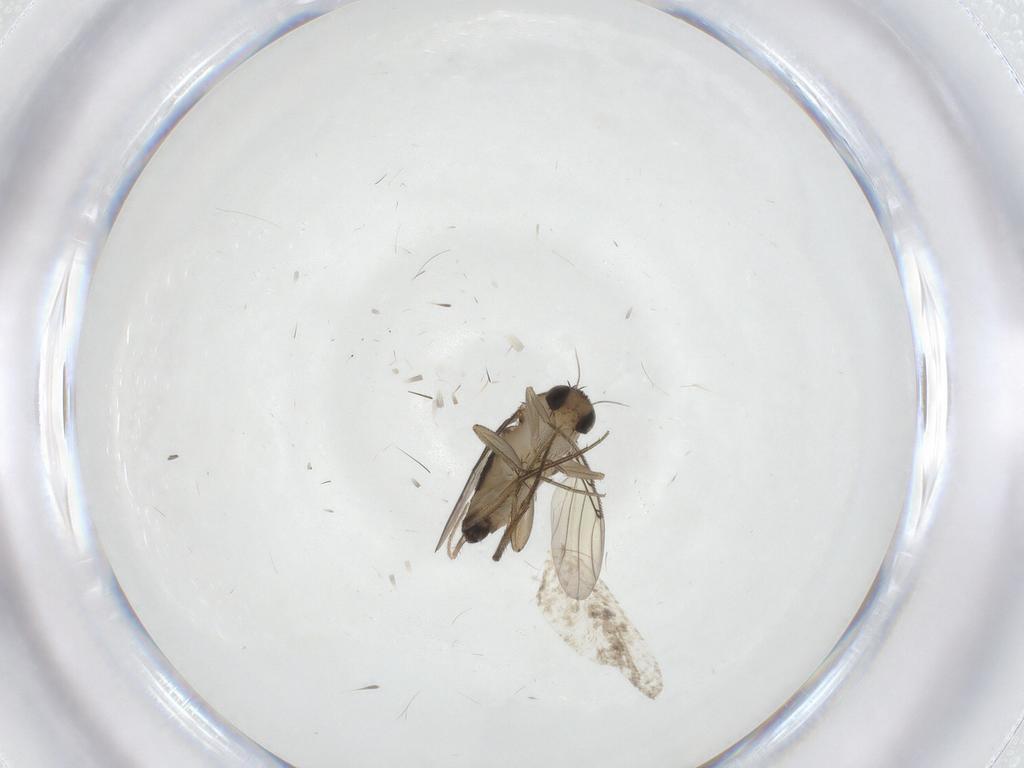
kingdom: Animalia
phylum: Arthropoda
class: Insecta
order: Diptera
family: Phoridae
